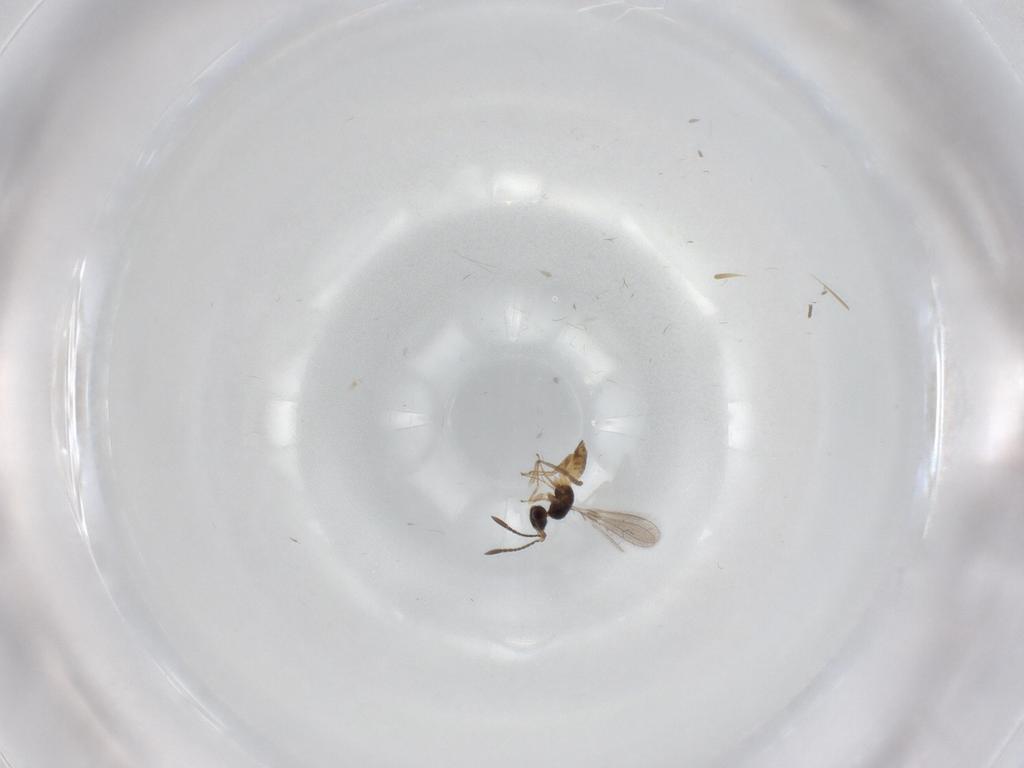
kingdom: Animalia
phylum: Arthropoda
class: Insecta
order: Hymenoptera
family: Mymaridae
